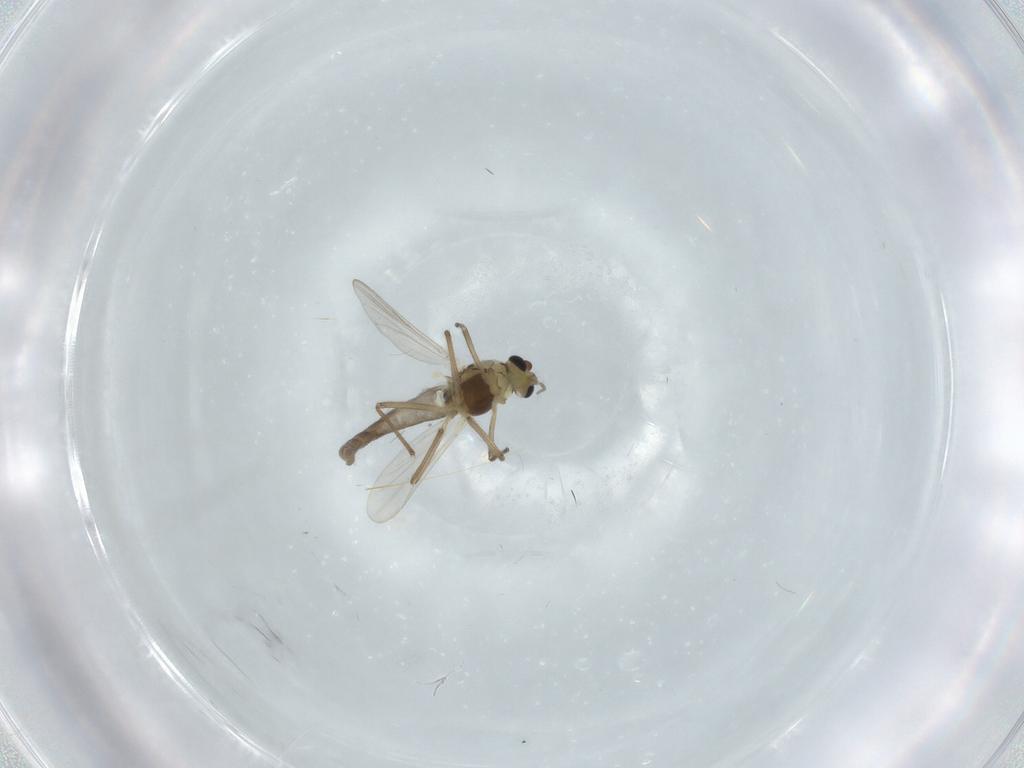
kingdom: Animalia
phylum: Arthropoda
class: Insecta
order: Diptera
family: Chironomidae
